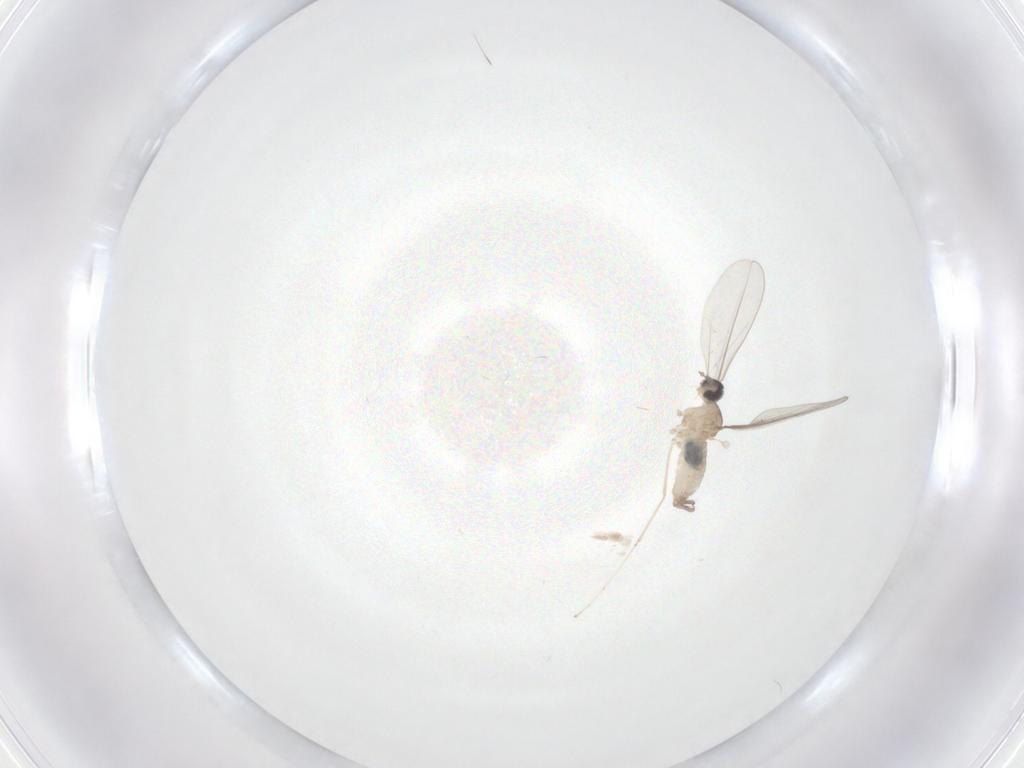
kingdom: Animalia
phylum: Arthropoda
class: Insecta
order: Diptera
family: Cecidomyiidae
